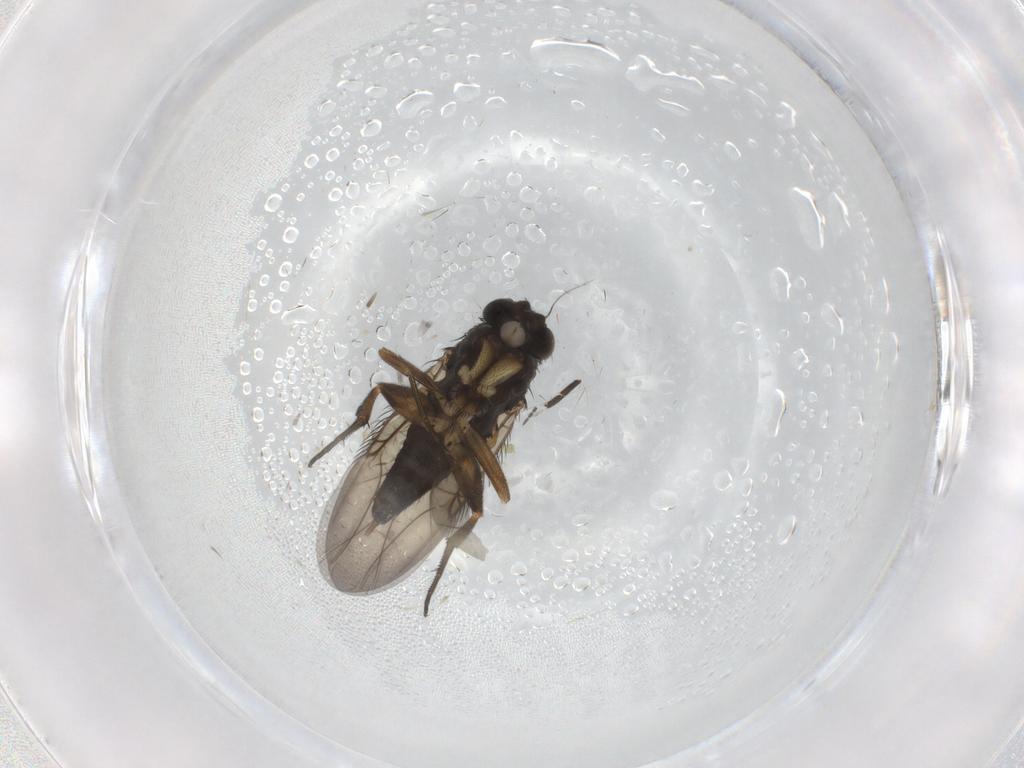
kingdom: Animalia
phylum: Arthropoda
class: Insecta
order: Diptera
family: Phoridae
